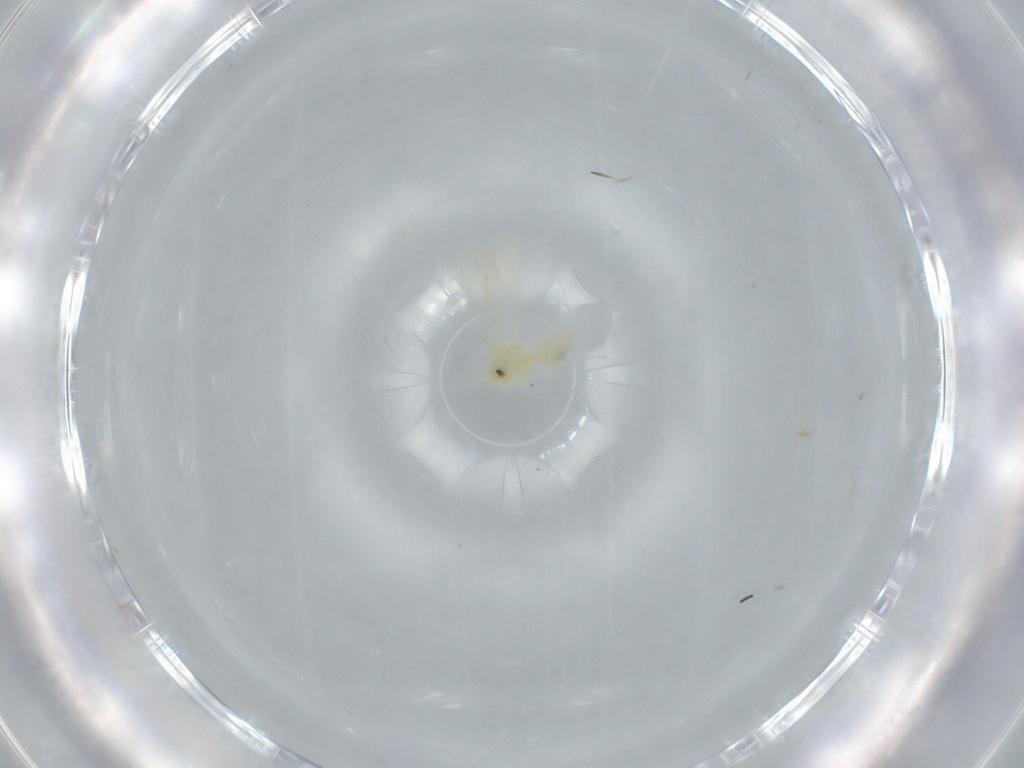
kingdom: Animalia
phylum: Arthropoda
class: Insecta
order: Hemiptera
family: Aleyrodidae
